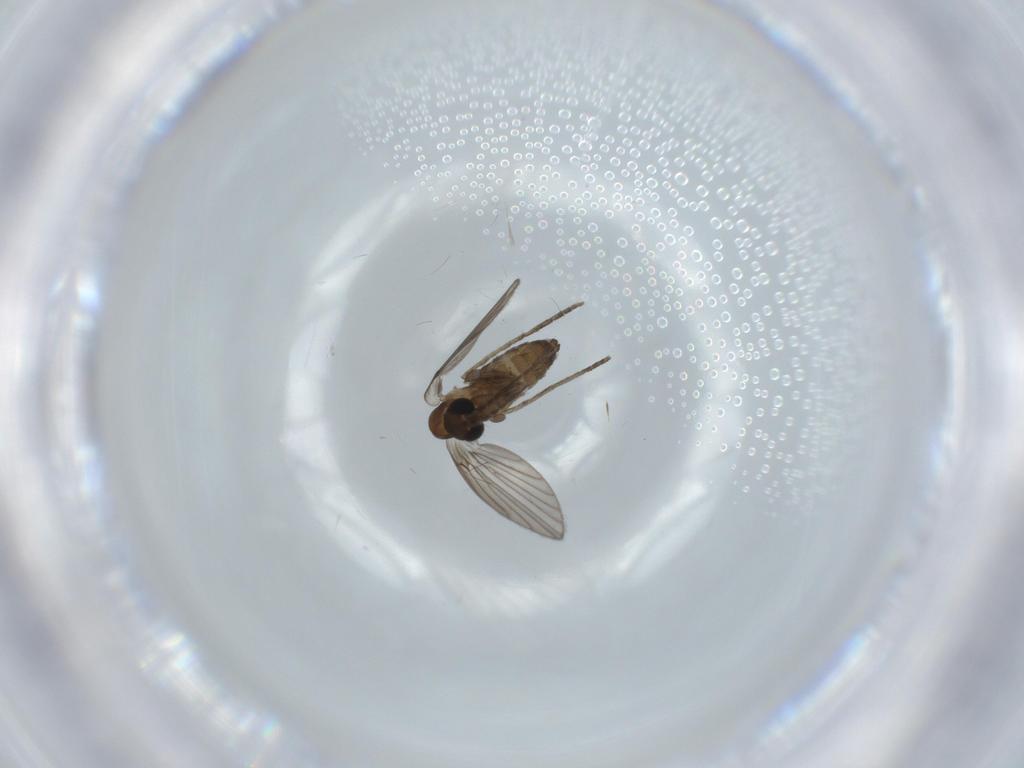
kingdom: Animalia
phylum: Arthropoda
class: Insecta
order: Diptera
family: Psychodidae
